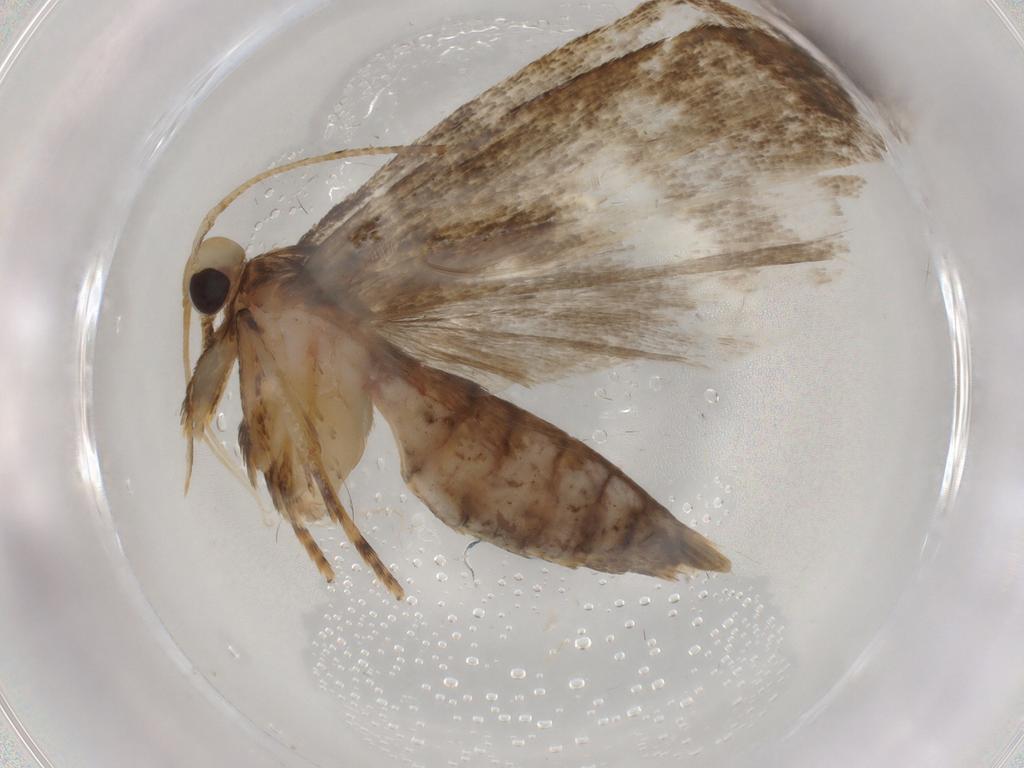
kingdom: Animalia
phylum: Arthropoda
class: Insecta
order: Lepidoptera
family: Autostichidae
